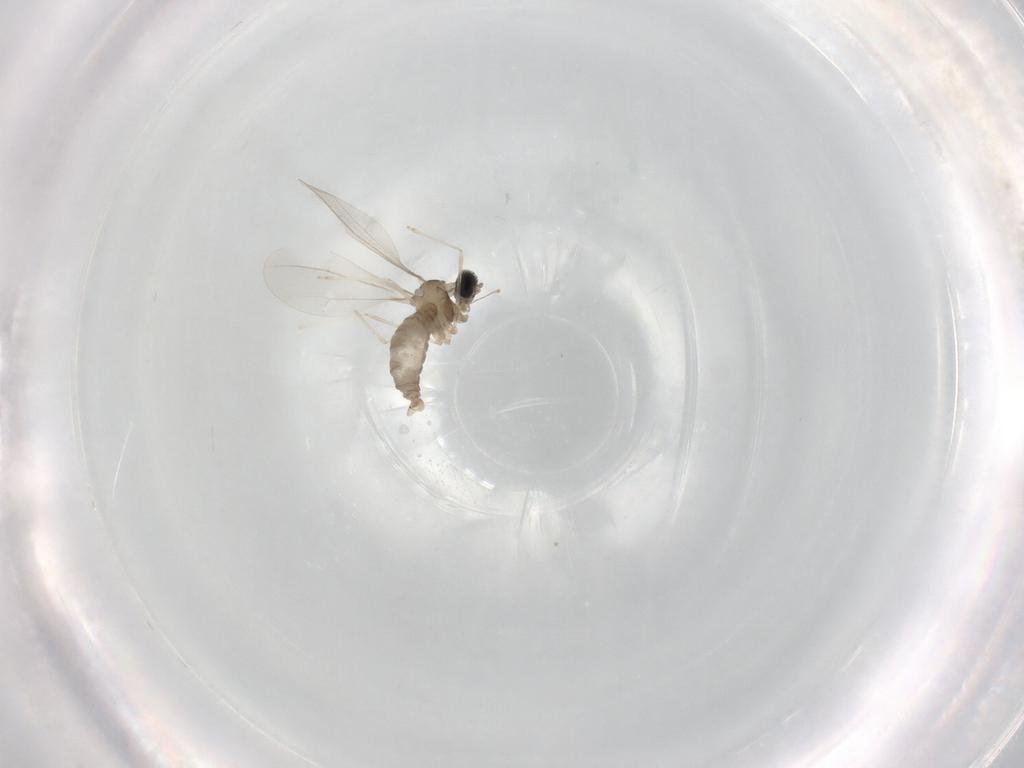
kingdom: Animalia
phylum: Arthropoda
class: Insecta
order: Diptera
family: Cecidomyiidae
